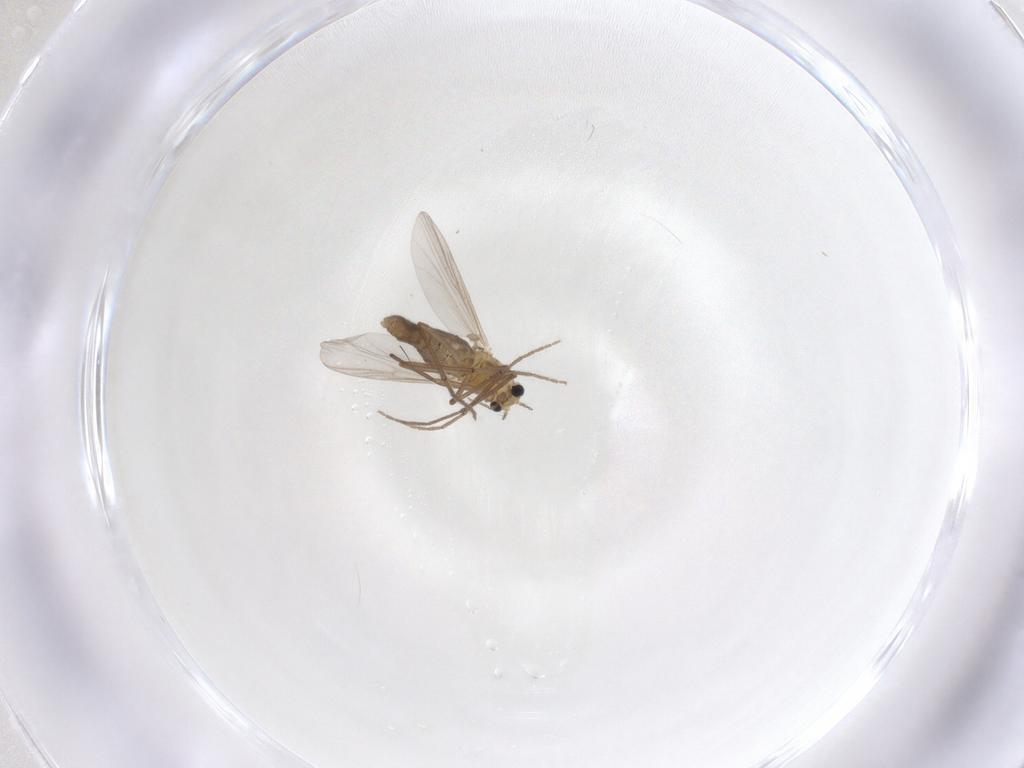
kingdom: Animalia
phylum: Arthropoda
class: Insecta
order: Diptera
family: Chironomidae
